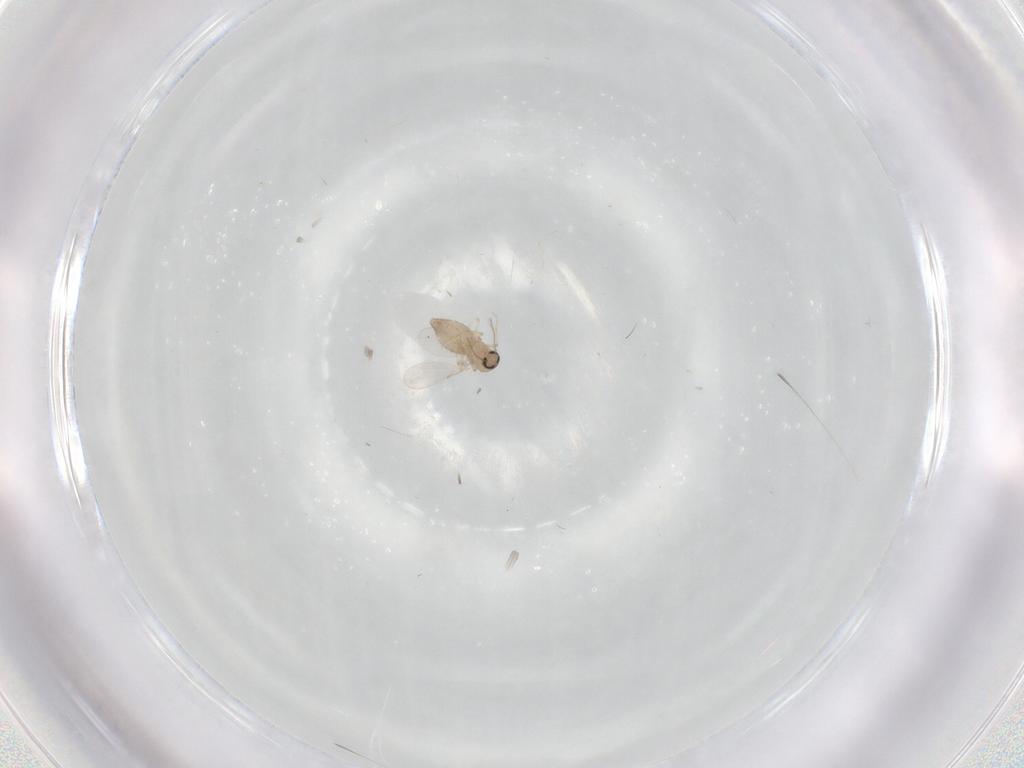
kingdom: Animalia
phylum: Arthropoda
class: Insecta
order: Diptera
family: Ceratopogonidae
